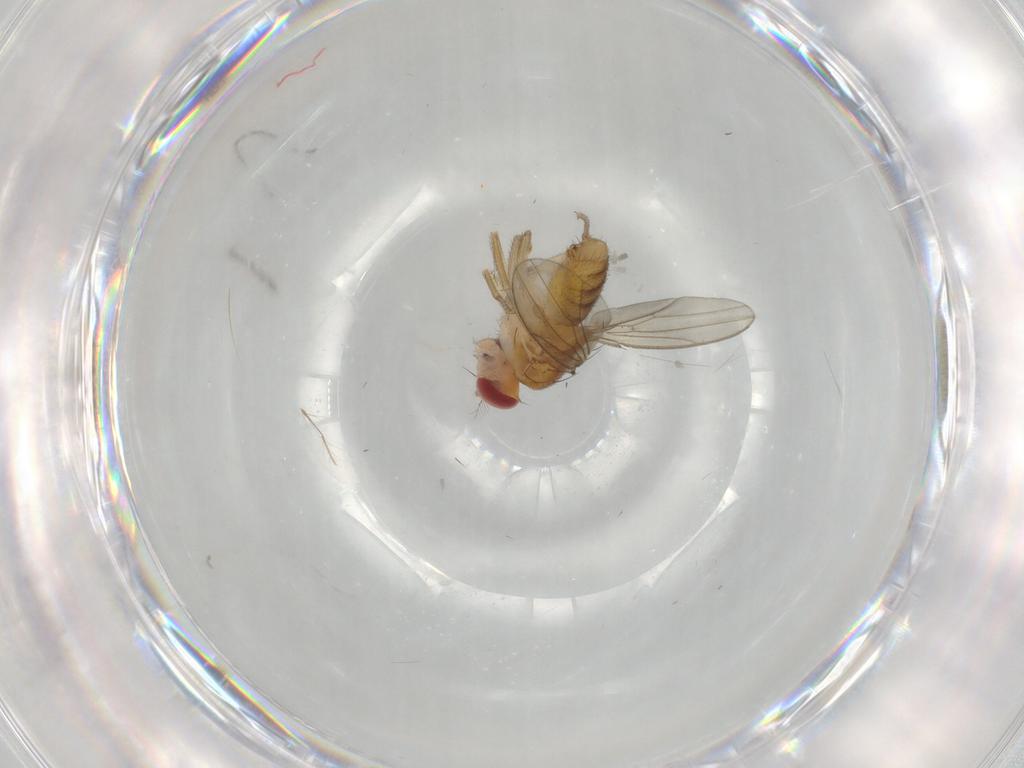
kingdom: Animalia
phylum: Arthropoda
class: Insecta
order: Diptera
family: Drosophilidae
